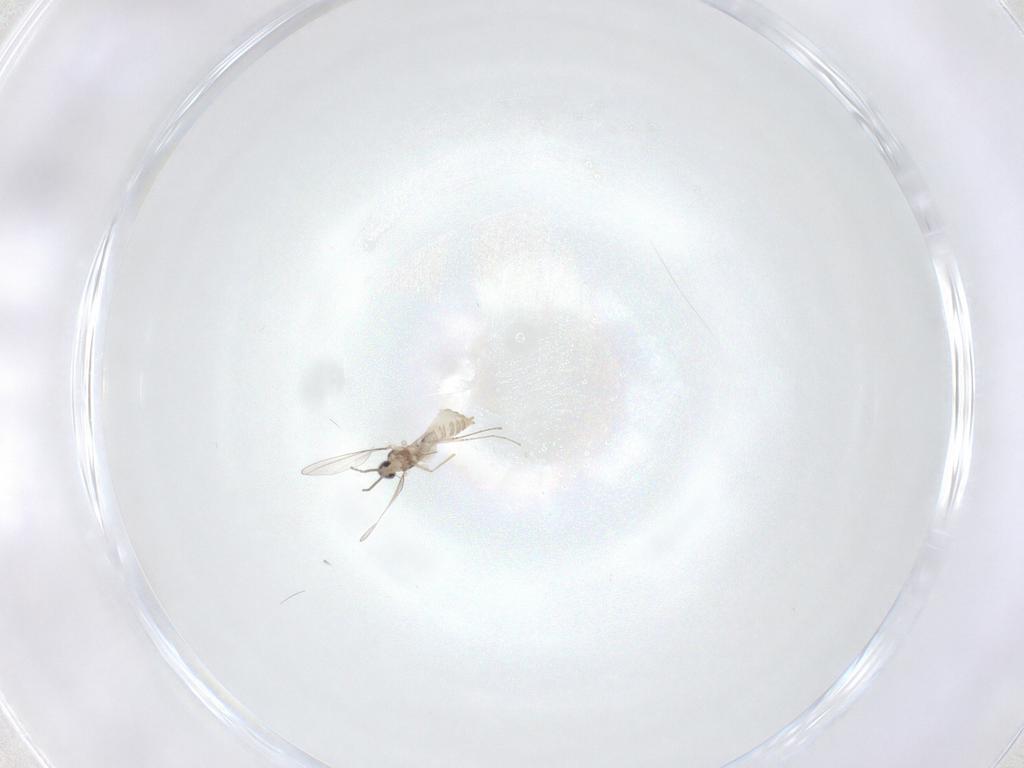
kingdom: Animalia
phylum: Arthropoda
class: Insecta
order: Diptera
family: Cecidomyiidae
